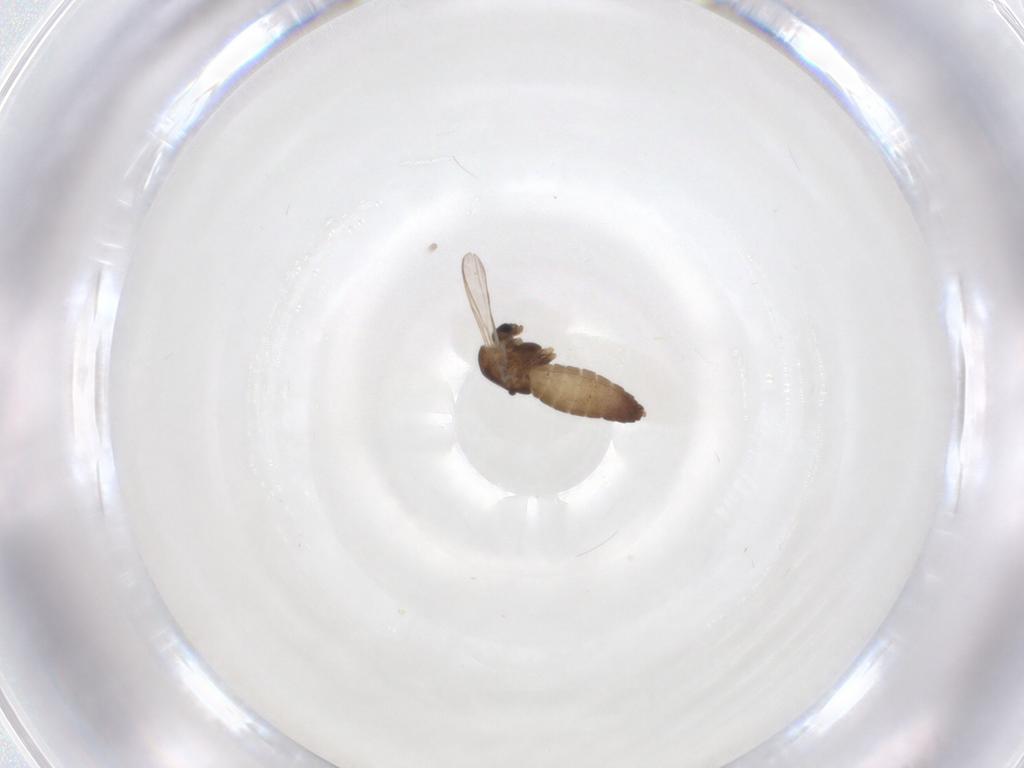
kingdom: Animalia
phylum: Arthropoda
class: Insecta
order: Diptera
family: Chironomidae
